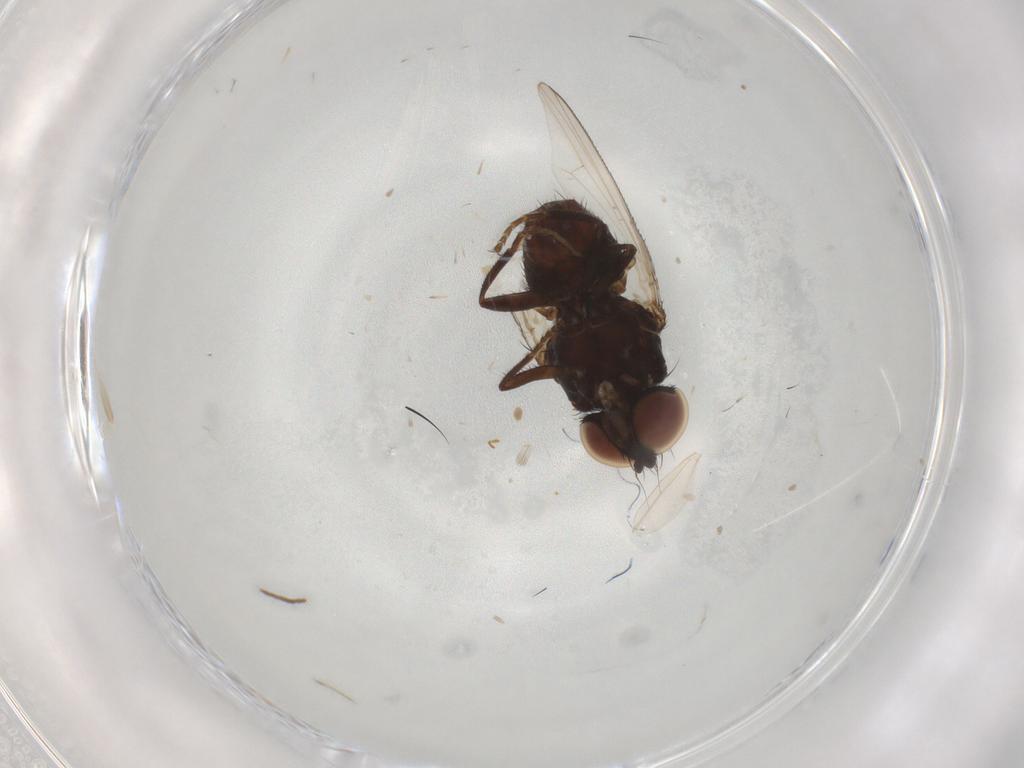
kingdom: Animalia
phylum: Arthropoda
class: Insecta
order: Diptera
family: Milichiidae
